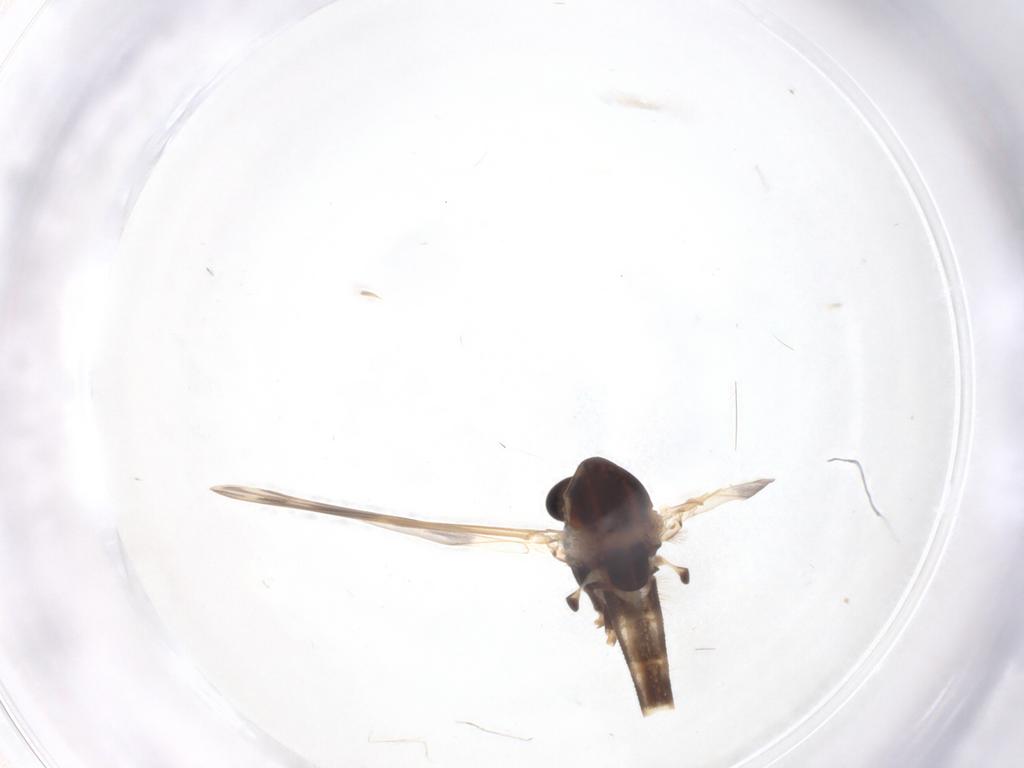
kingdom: Animalia
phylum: Arthropoda
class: Insecta
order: Diptera
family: Chironomidae
